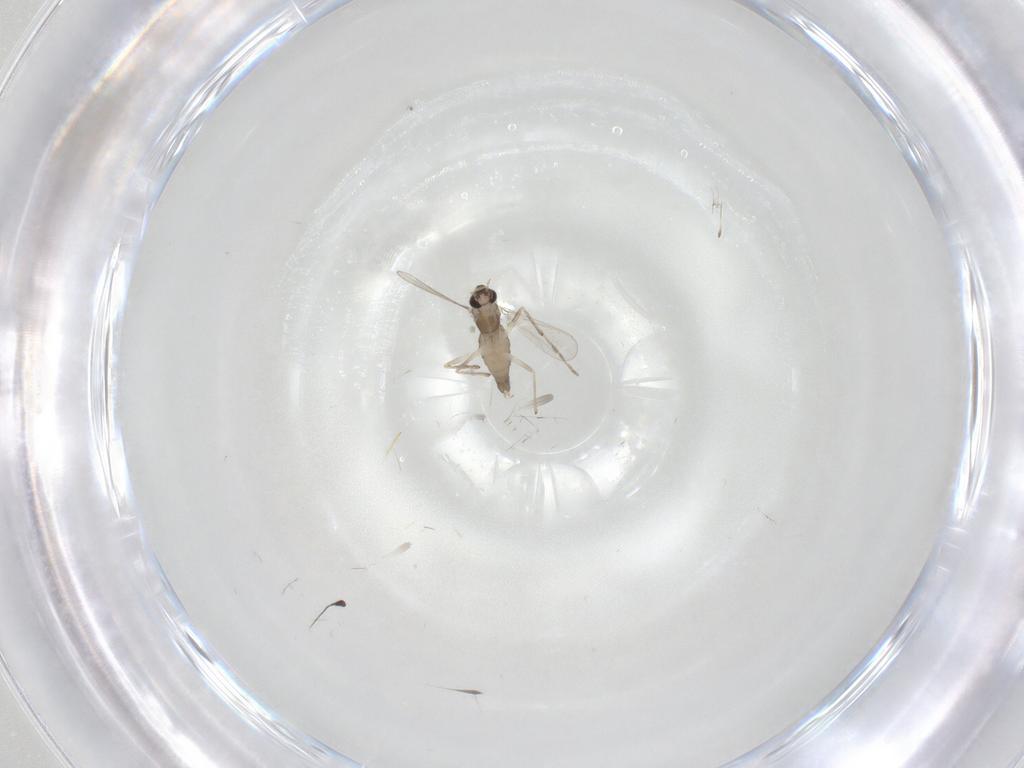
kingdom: Animalia
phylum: Arthropoda
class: Insecta
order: Diptera
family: Chironomidae
